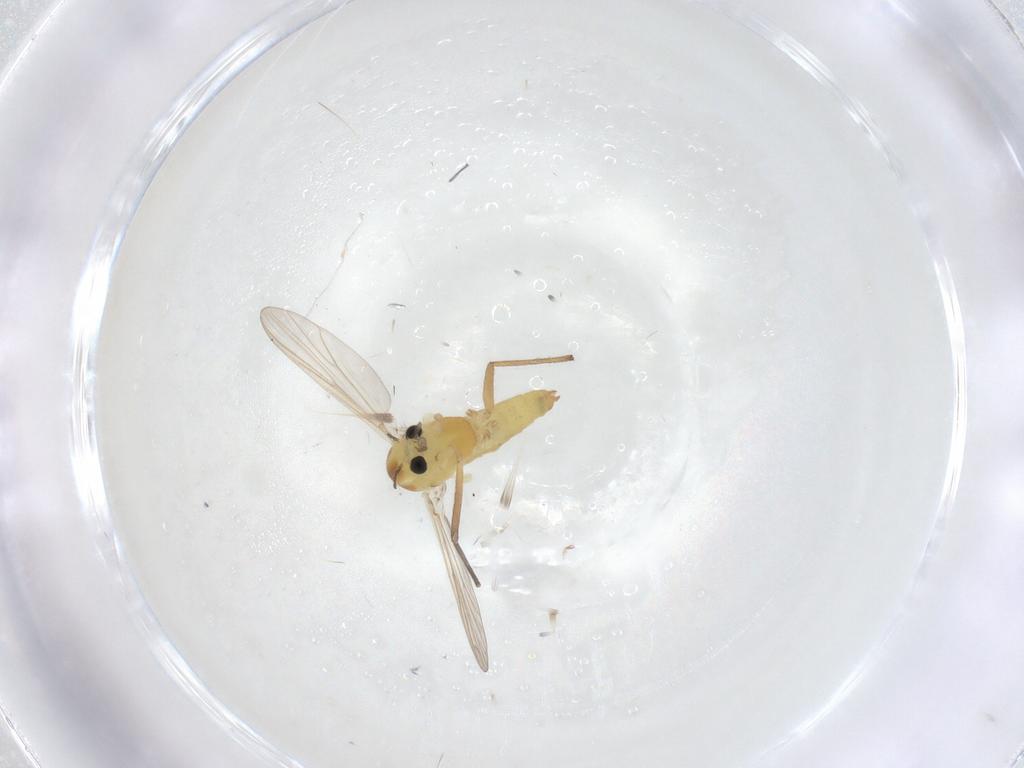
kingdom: Animalia
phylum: Arthropoda
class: Insecta
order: Diptera
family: Chironomidae
